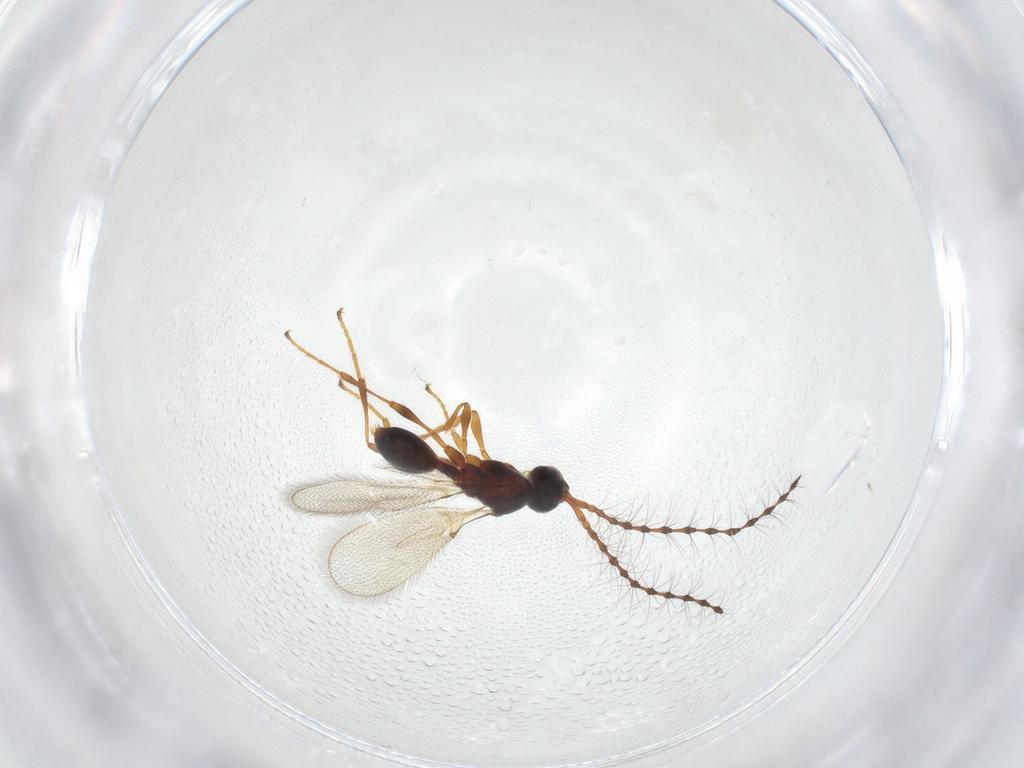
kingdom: Animalia
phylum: Arthropoda
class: Insecta
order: Hymenoptera
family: Diapriidae
